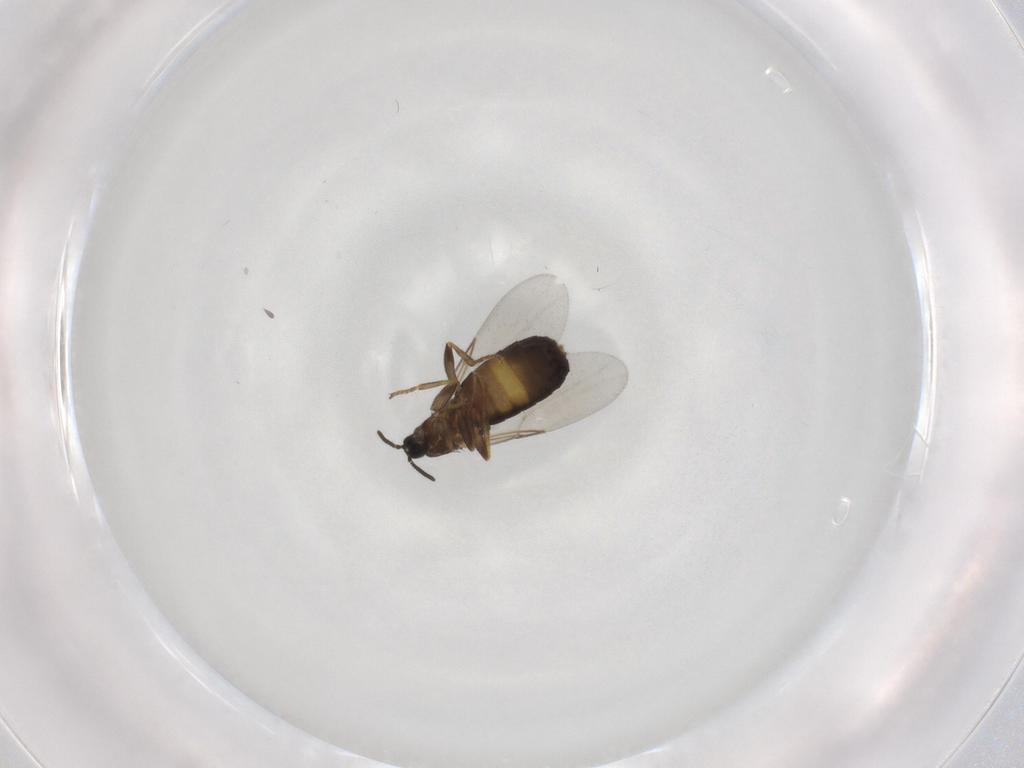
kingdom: Animalia
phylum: Arthropoda
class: Insecta
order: Diptera
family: Scatopsidae
